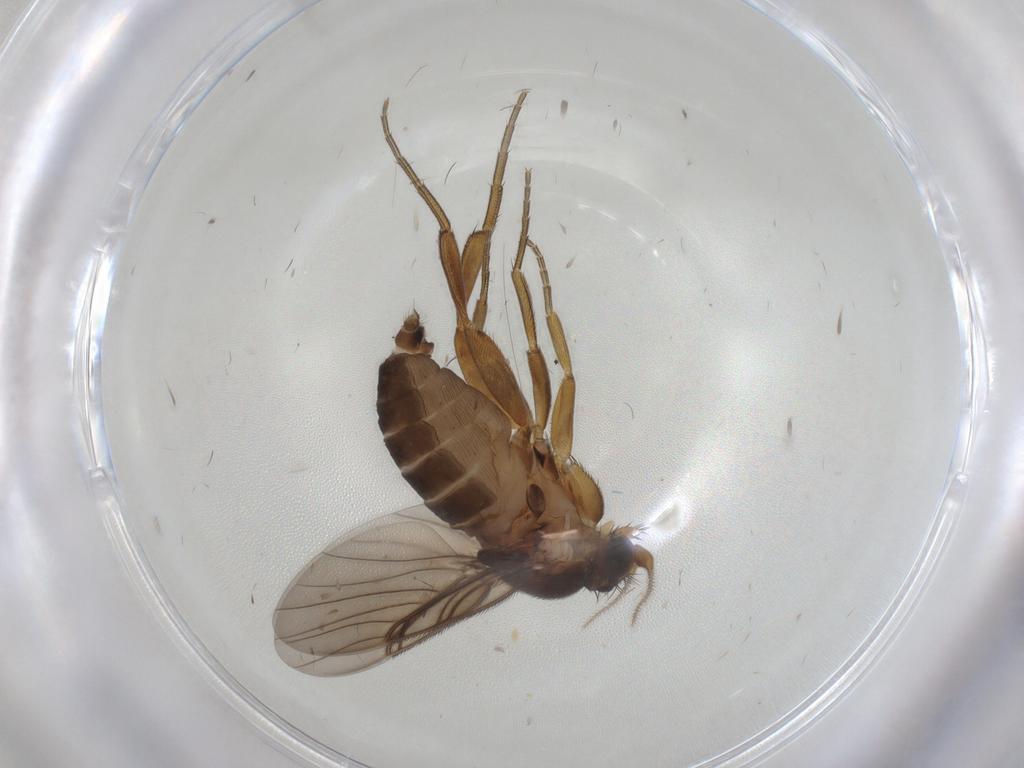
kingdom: Animalia
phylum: Arthropoda
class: Insecta
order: Diptera
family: Phoridae
